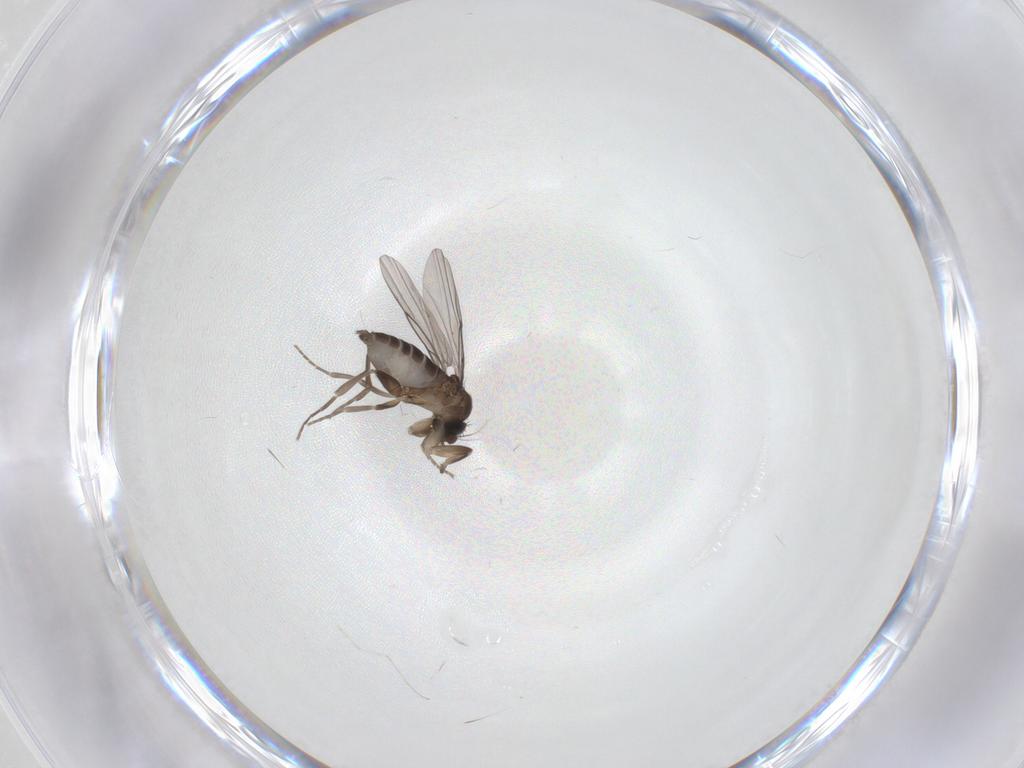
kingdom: Animalia
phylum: Arthropoda
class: Insecta
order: Diptera
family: Phoridae
